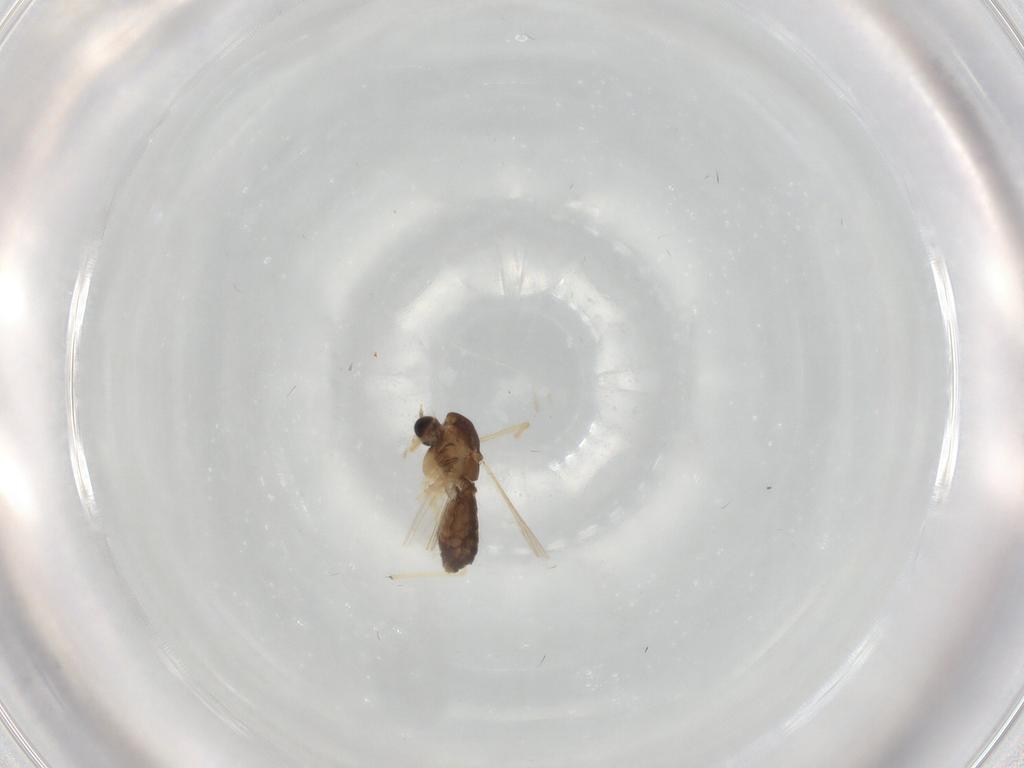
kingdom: Animalia
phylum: Arthropoda
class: Insecta
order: Diptera
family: Chironomidae
